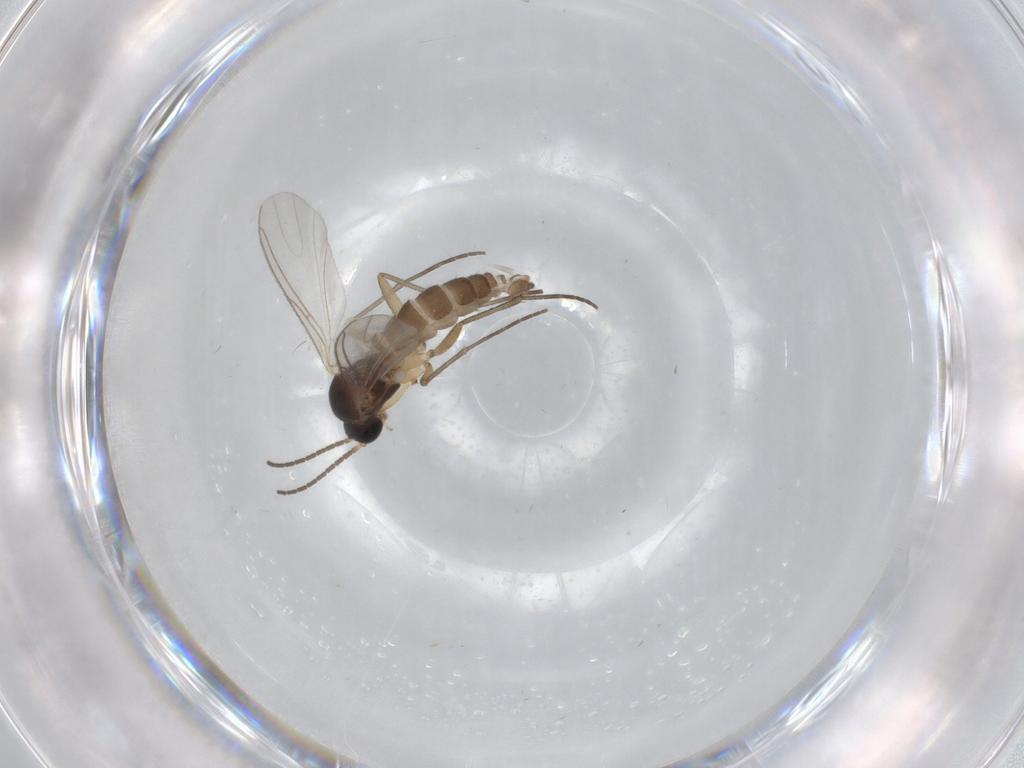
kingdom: Animalia
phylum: Arthropoda
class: Insecta
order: Diptera
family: Sciaridae
